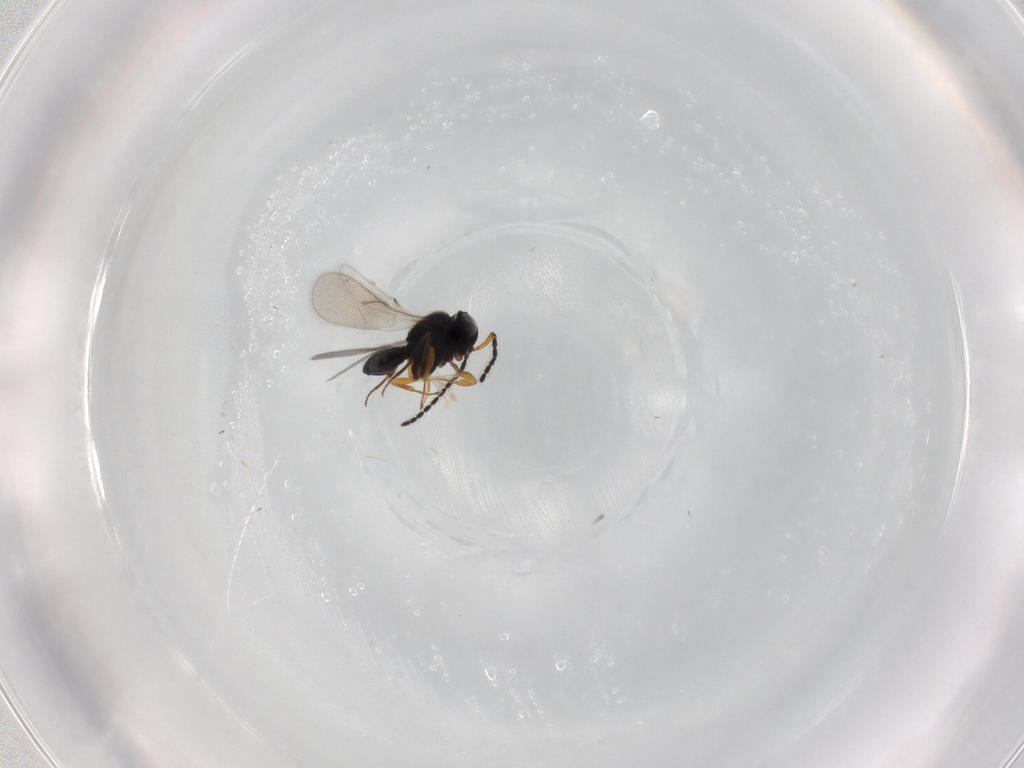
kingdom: Animalia
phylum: Arthropoda
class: Insecta
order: Hymenoptera
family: Scelionidae
